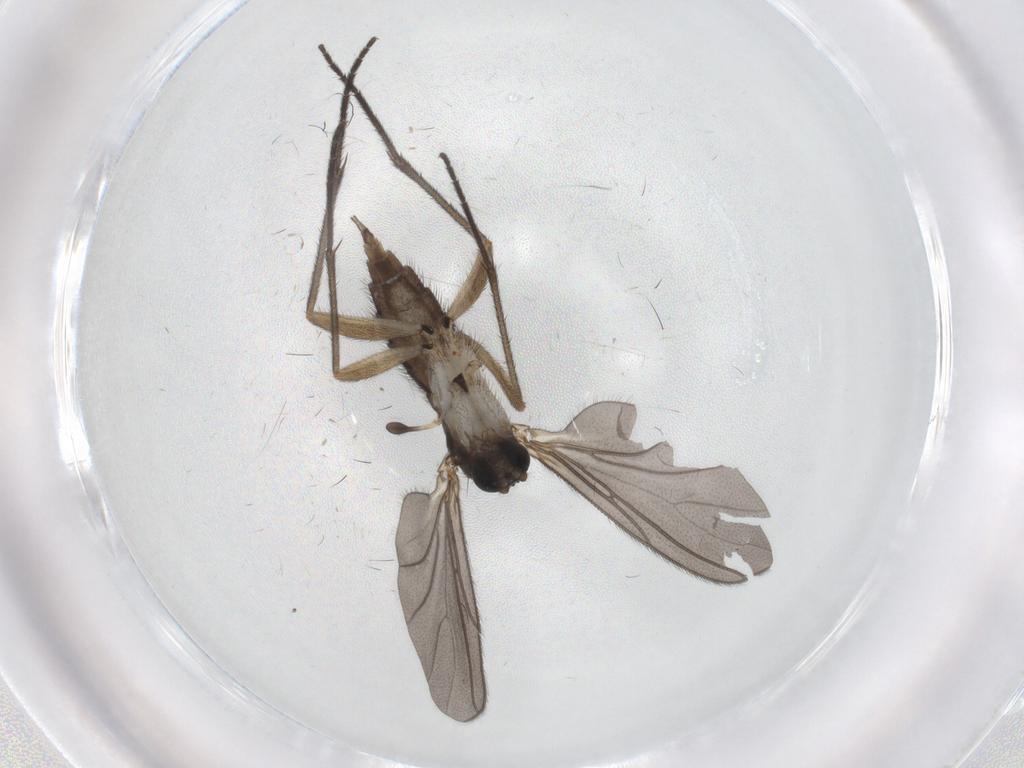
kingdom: Animalia
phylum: Arthropoda
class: Insecta
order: Diptera
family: Sciaridae
